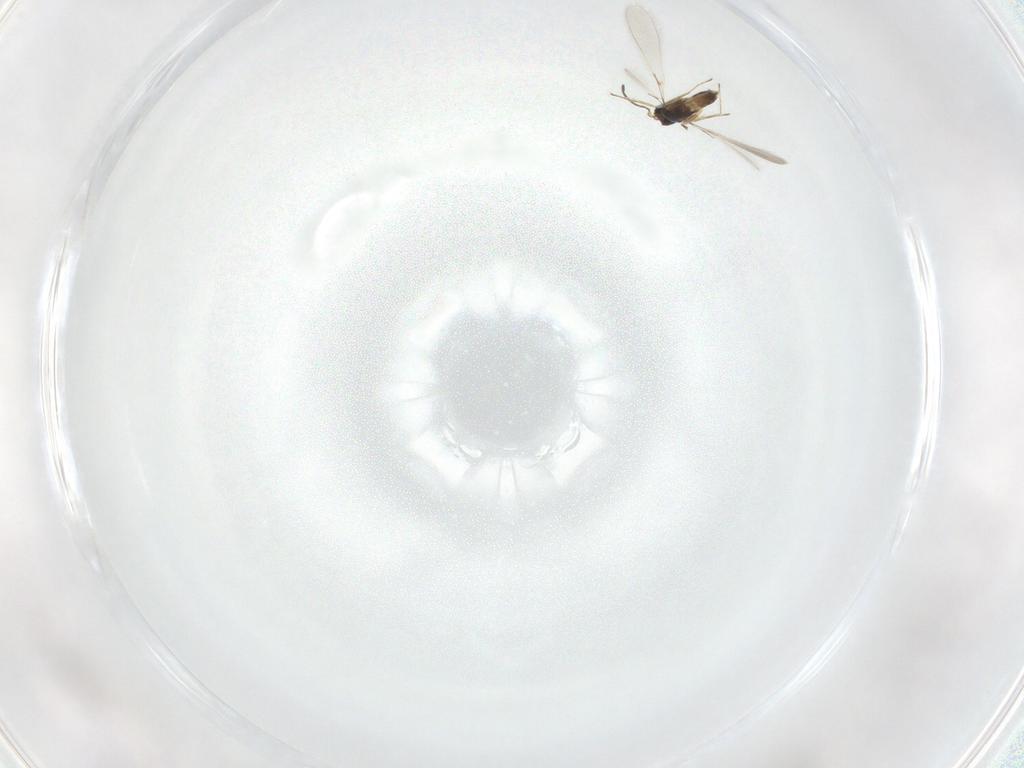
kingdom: Animalia
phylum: Arthropoda
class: Insecta
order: Hymenoptera
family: Mymaridae
